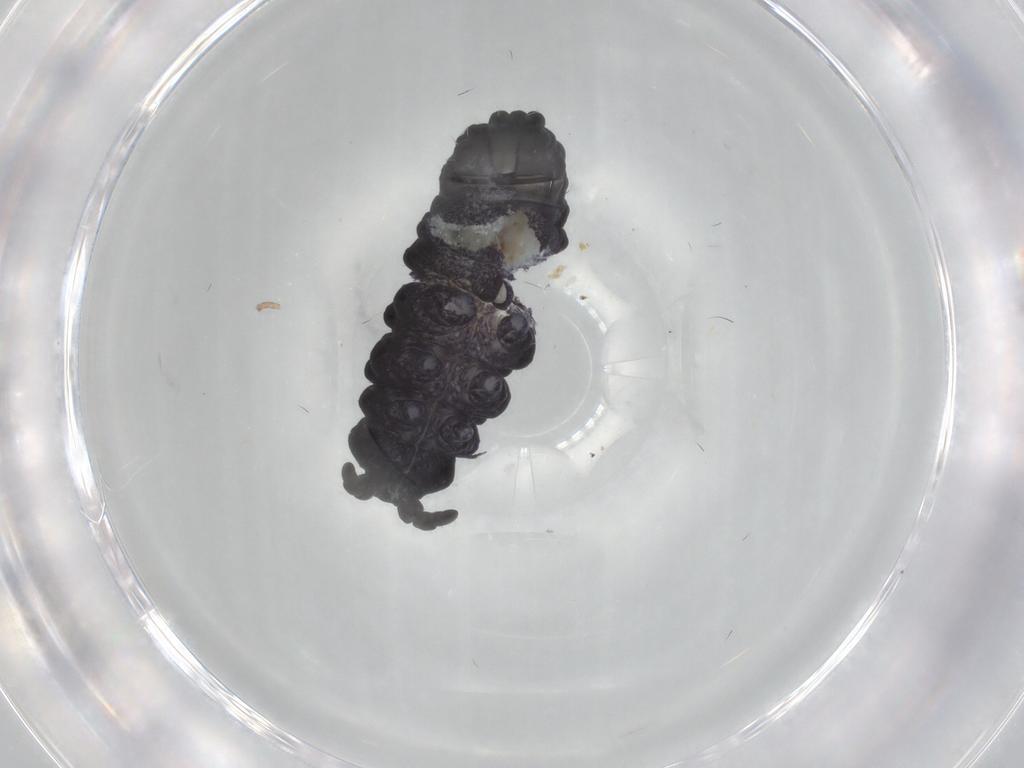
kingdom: Animalia
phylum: Arthropoda
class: Collembola
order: Poduromorpha
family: Neanuridae
